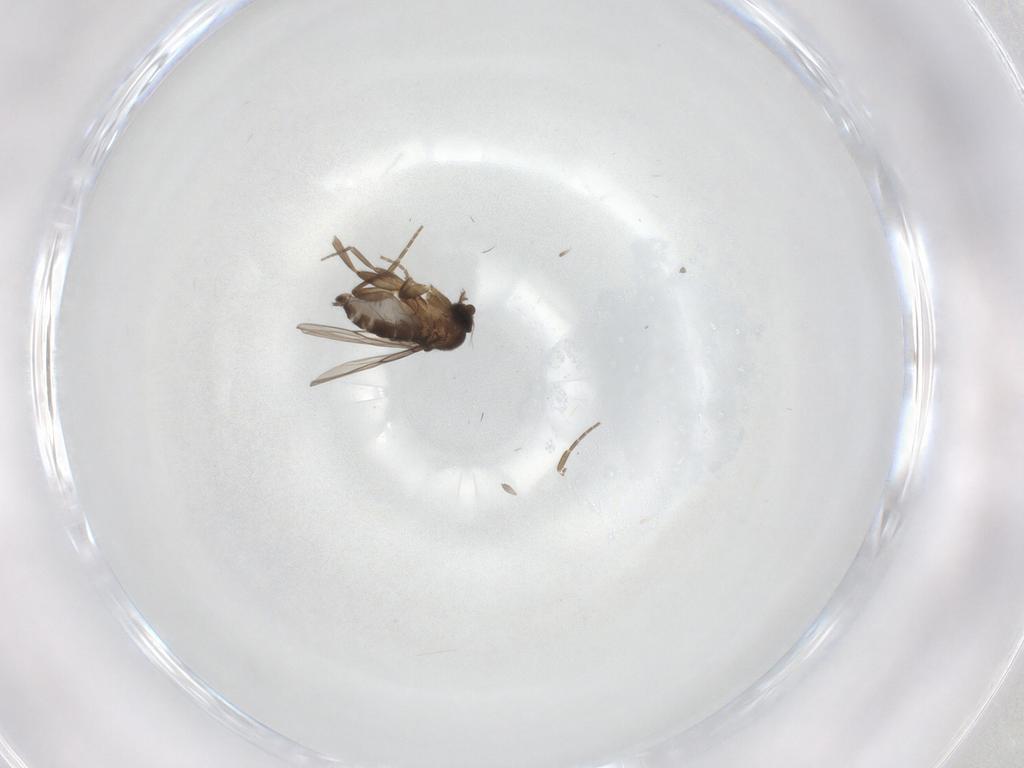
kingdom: Animalia
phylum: Arthropoda
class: Insecta
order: Diptera
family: Phoridae
